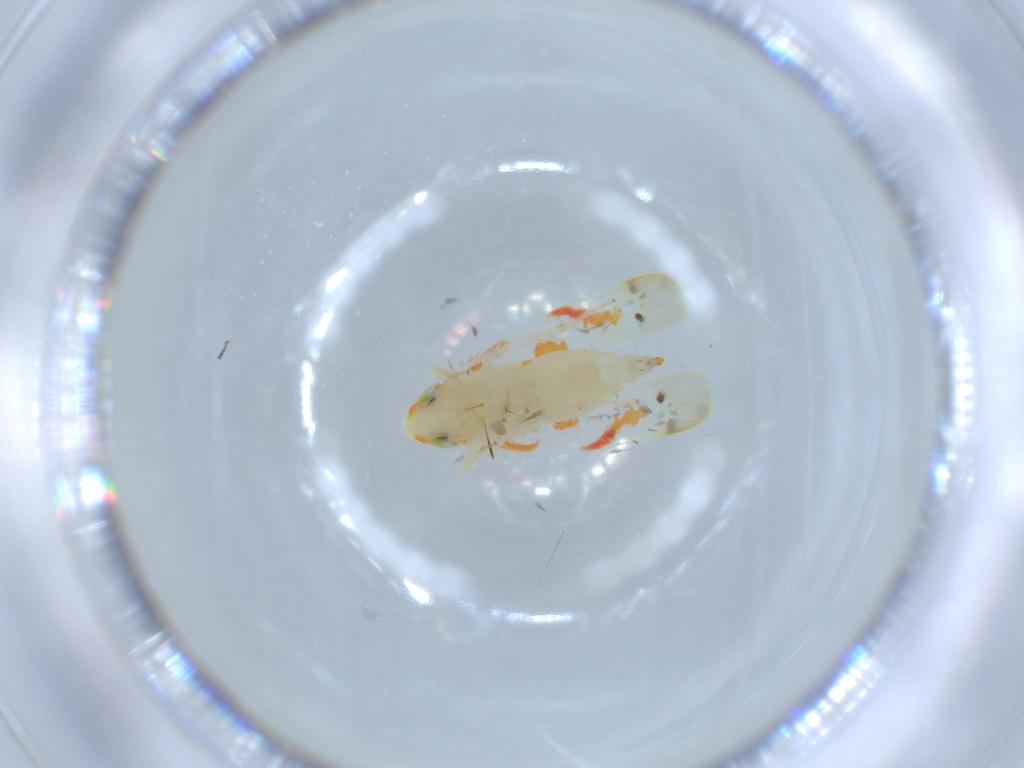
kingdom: Animalia
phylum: Arthropoda
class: Insecta
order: Hemiptera
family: Cicadellidae
